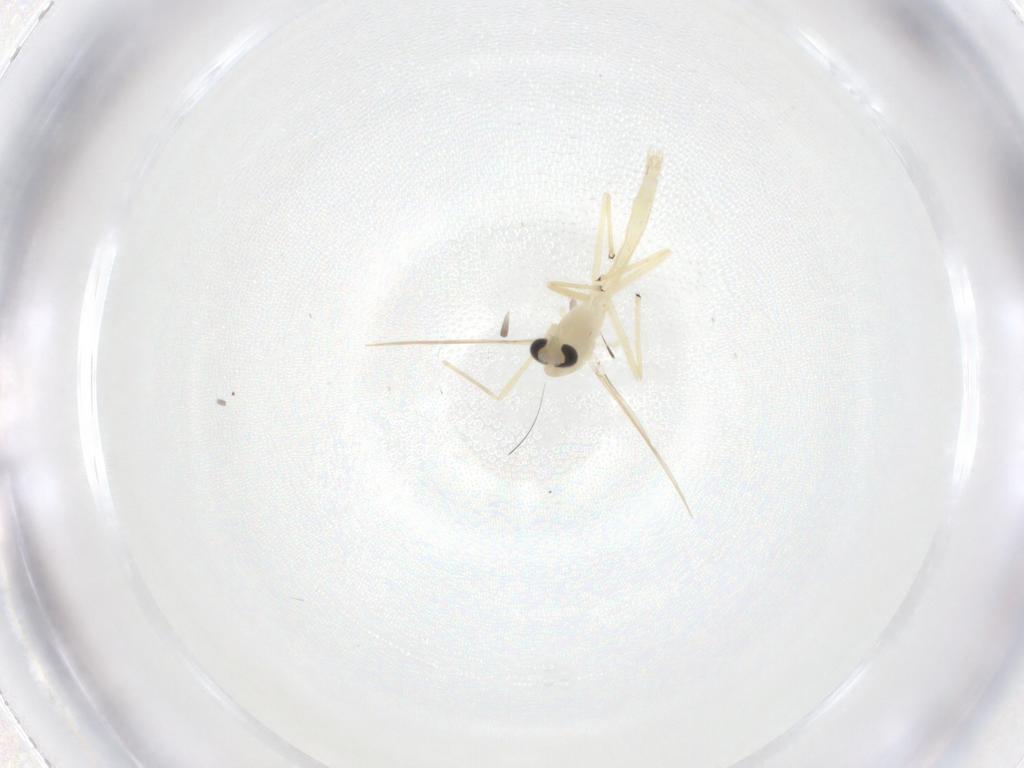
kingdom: Animalia
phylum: Arthropoda
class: Insecta
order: Diptera
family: Chironomidae
